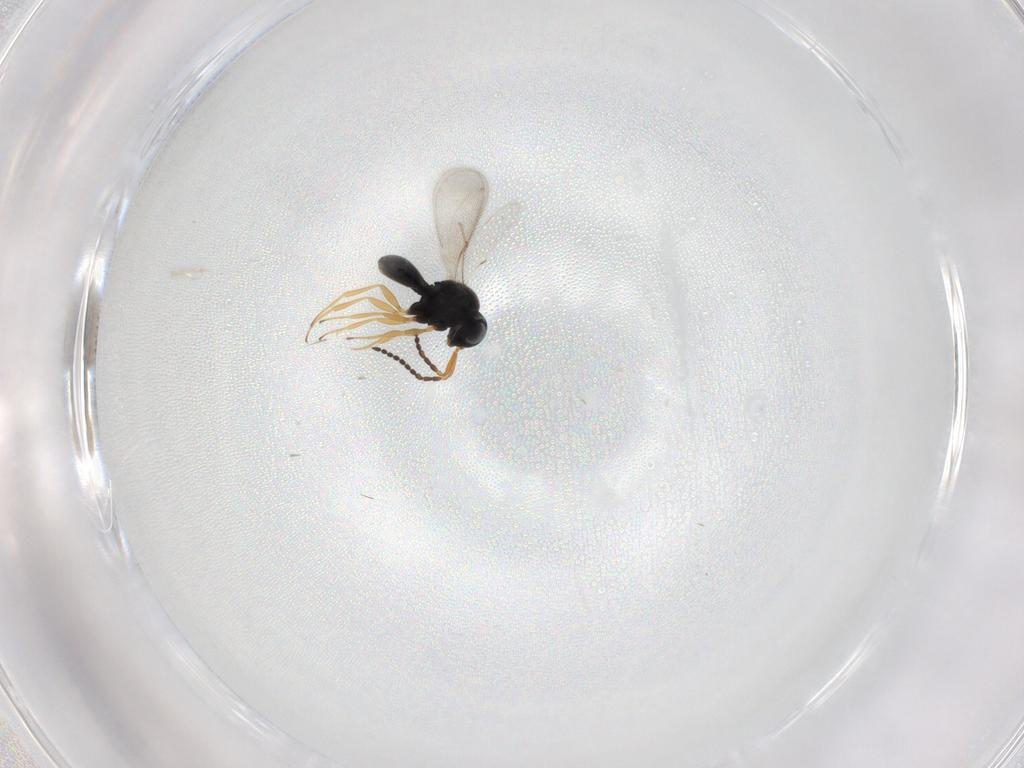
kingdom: Animalia
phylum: Arthropoda
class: Insecta
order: Hymenoptera
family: Scelionidae
